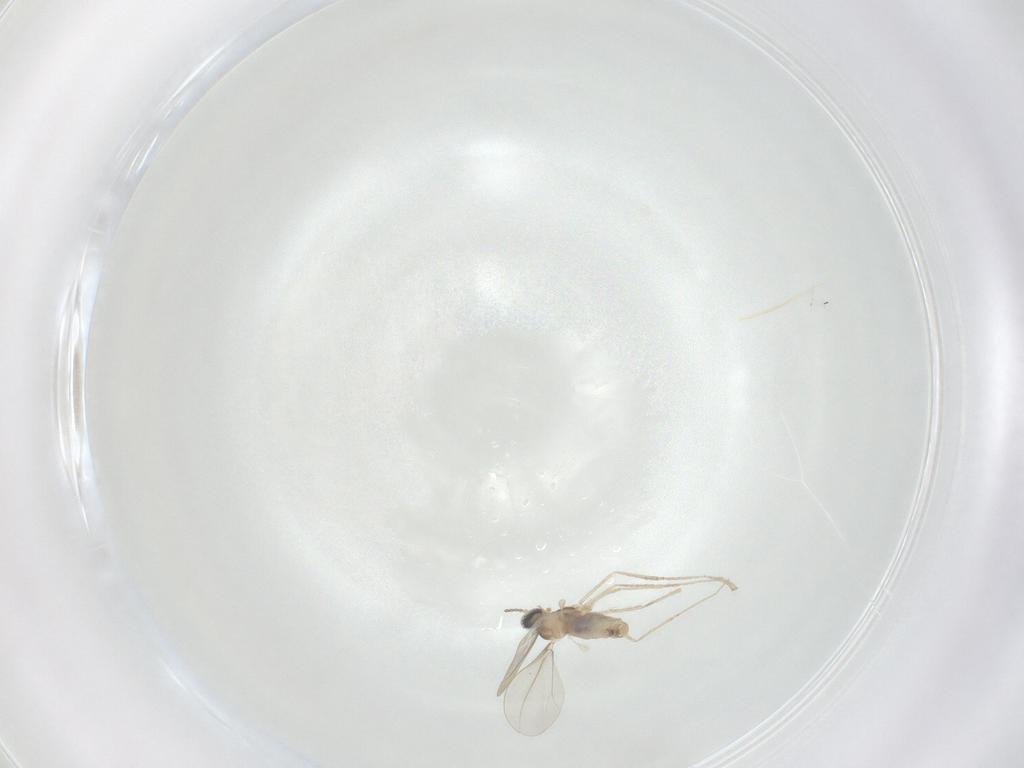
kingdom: Animalia
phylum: Arthropoda
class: Insecta
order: Diptera
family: Cecidomyiidae
